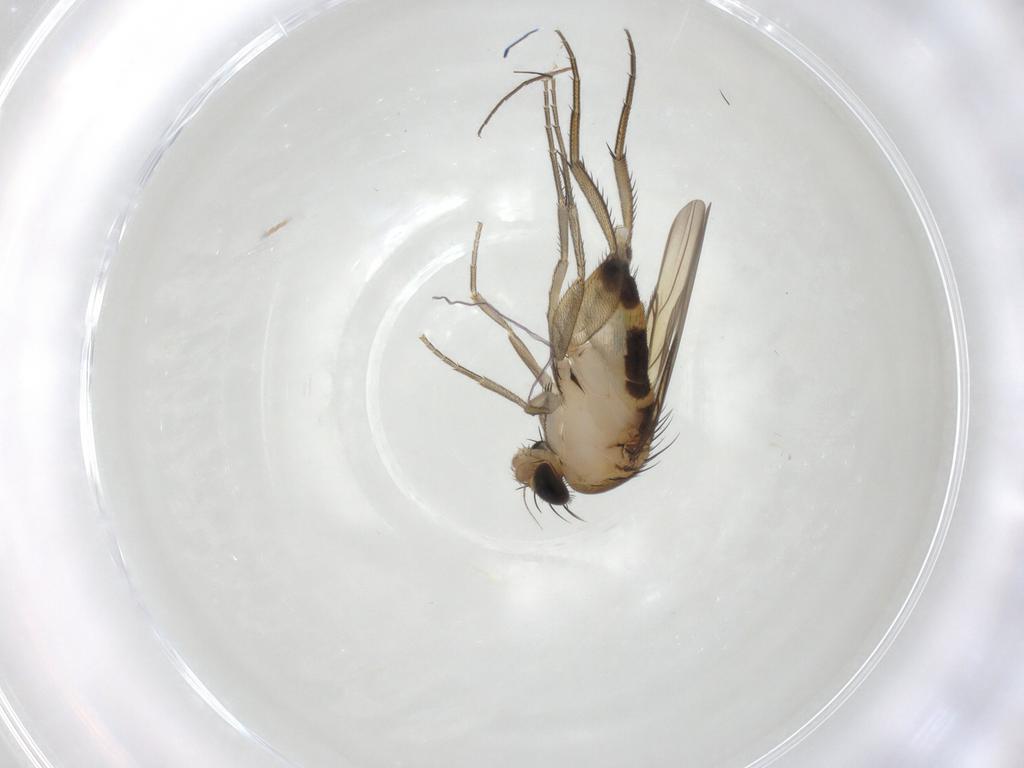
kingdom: Animalia
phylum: Arthropoda
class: Insecta
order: Diptera
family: Phoridae
